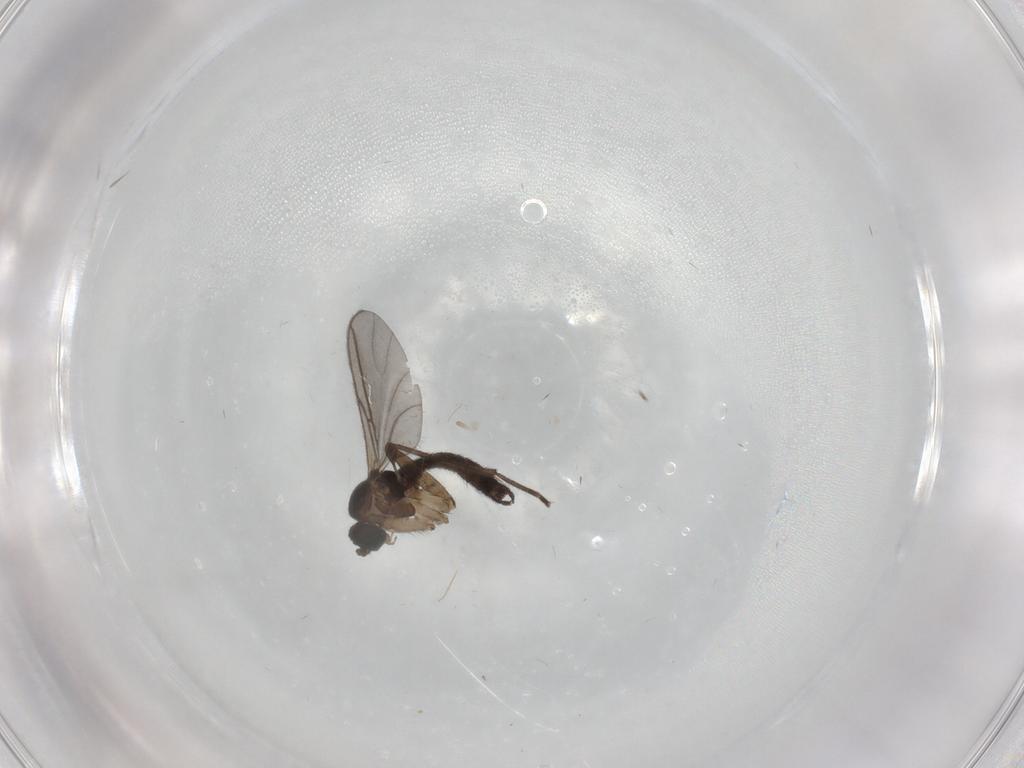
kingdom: Animalia
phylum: Arthropoda
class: Insecta
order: Diptera
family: Sciaridae
